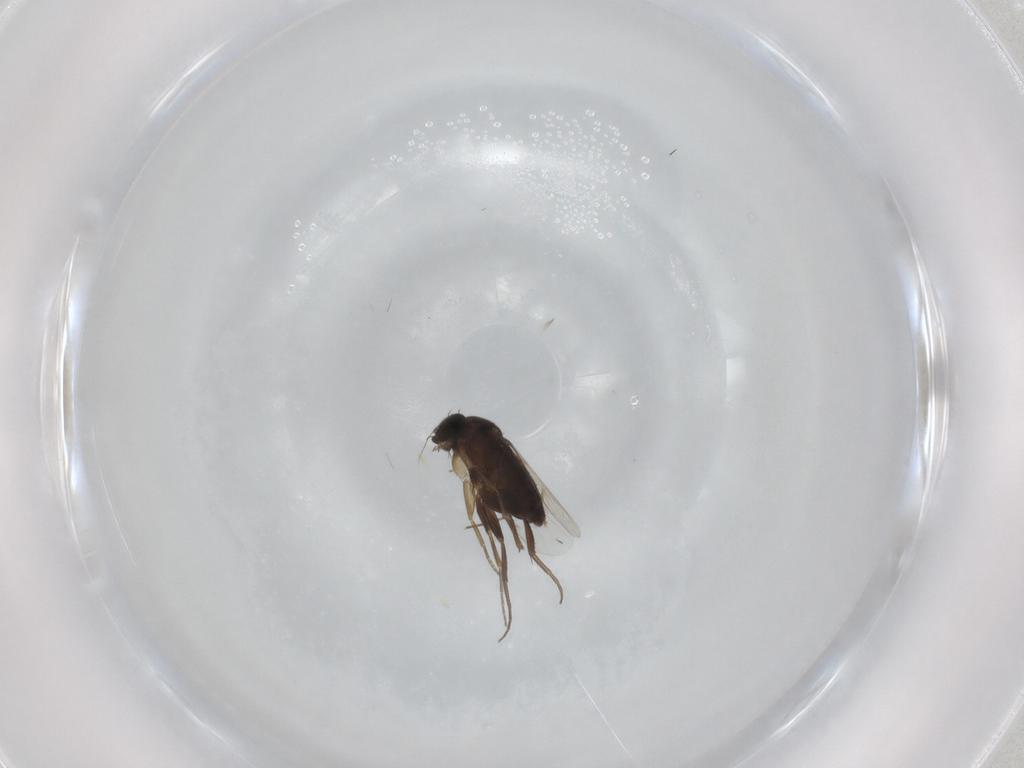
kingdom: Animalia
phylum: Arthropoda
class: Insecta
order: Diptera
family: Phoridae
